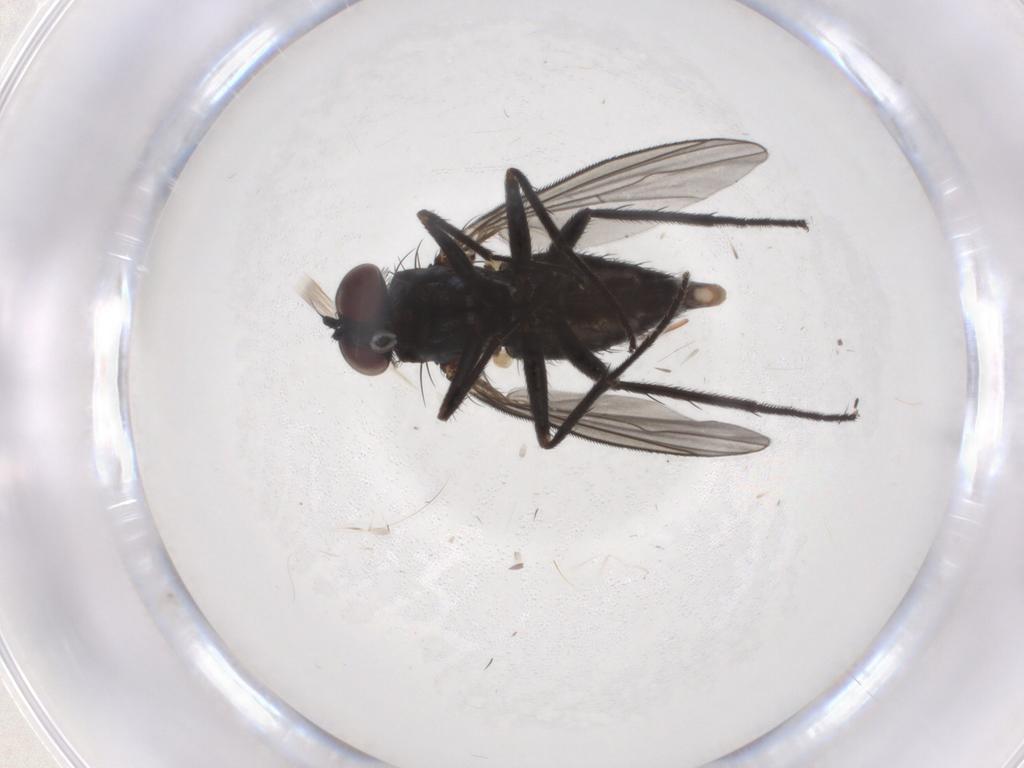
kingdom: Animalia
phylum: Arthropoda
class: Insecta
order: Diptera
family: Dolichopodidae
